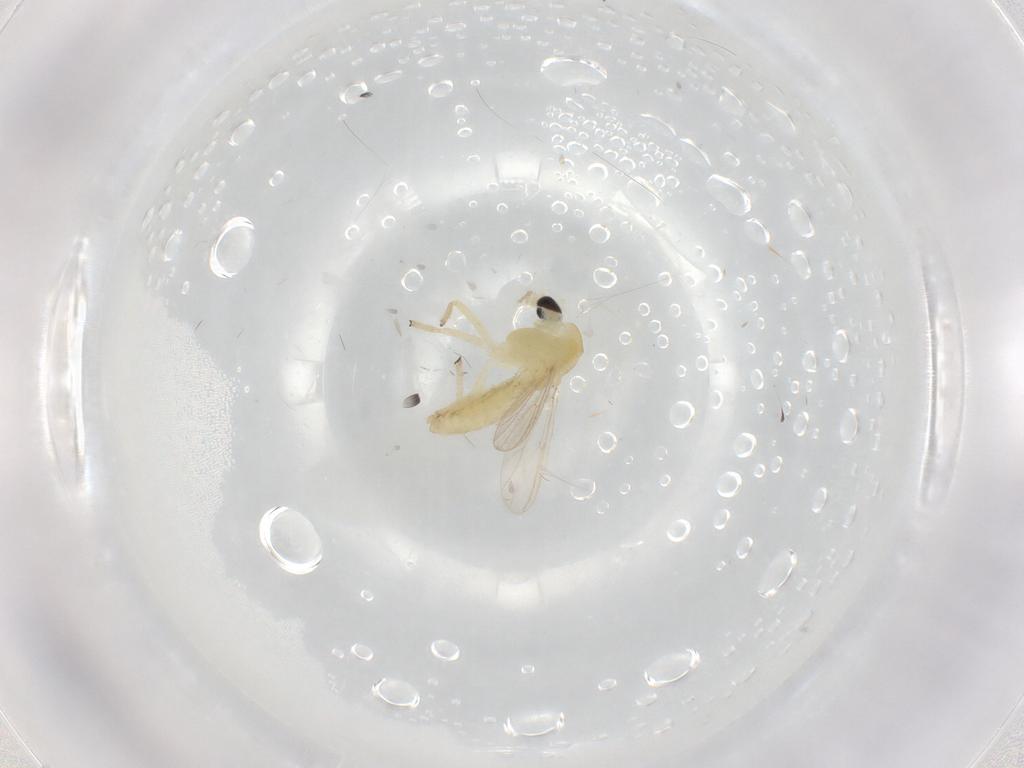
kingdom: Animalia
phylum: Arthropoda
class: Insecta
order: Diptera
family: Chironomidae
